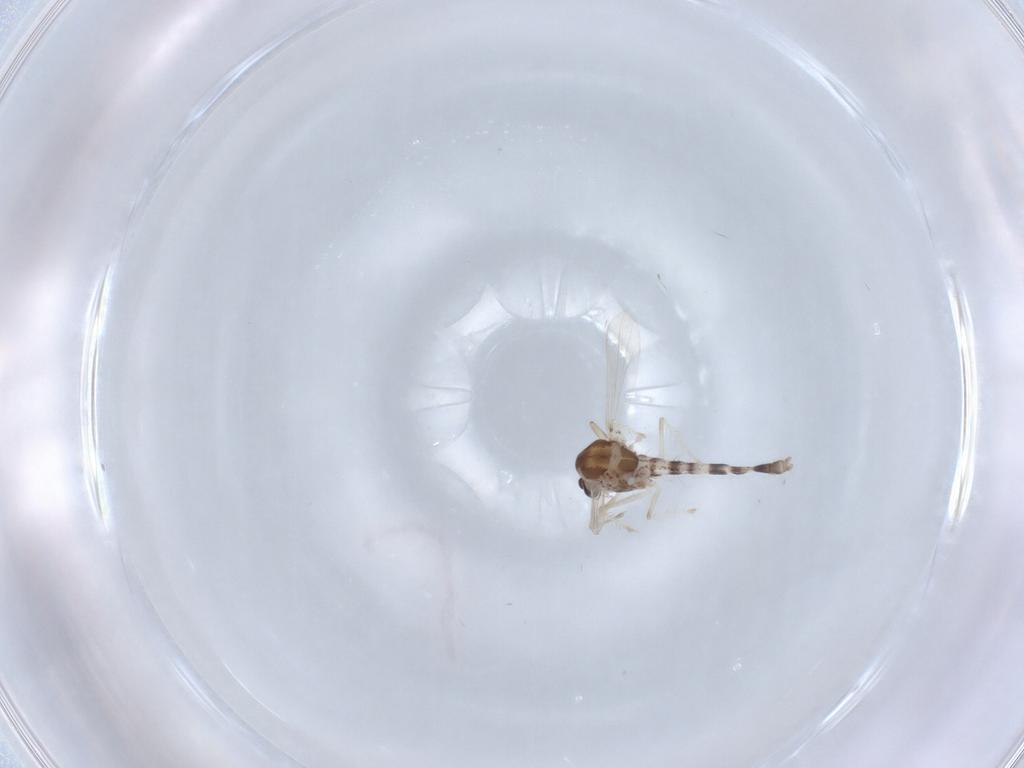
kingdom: Animalia
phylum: Arthropoda
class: Insecta
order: Diptera
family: Chironomidae
